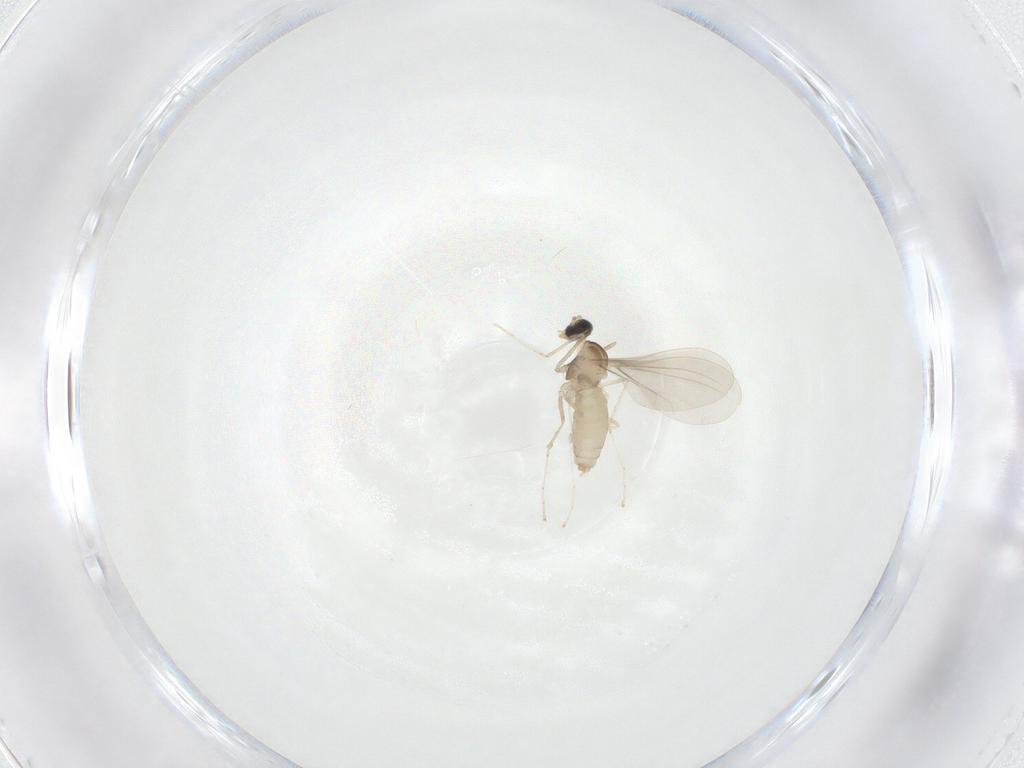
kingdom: Animalia
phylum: Arthropoda
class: Insecta
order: Diptera
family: Cecidomyiidae
